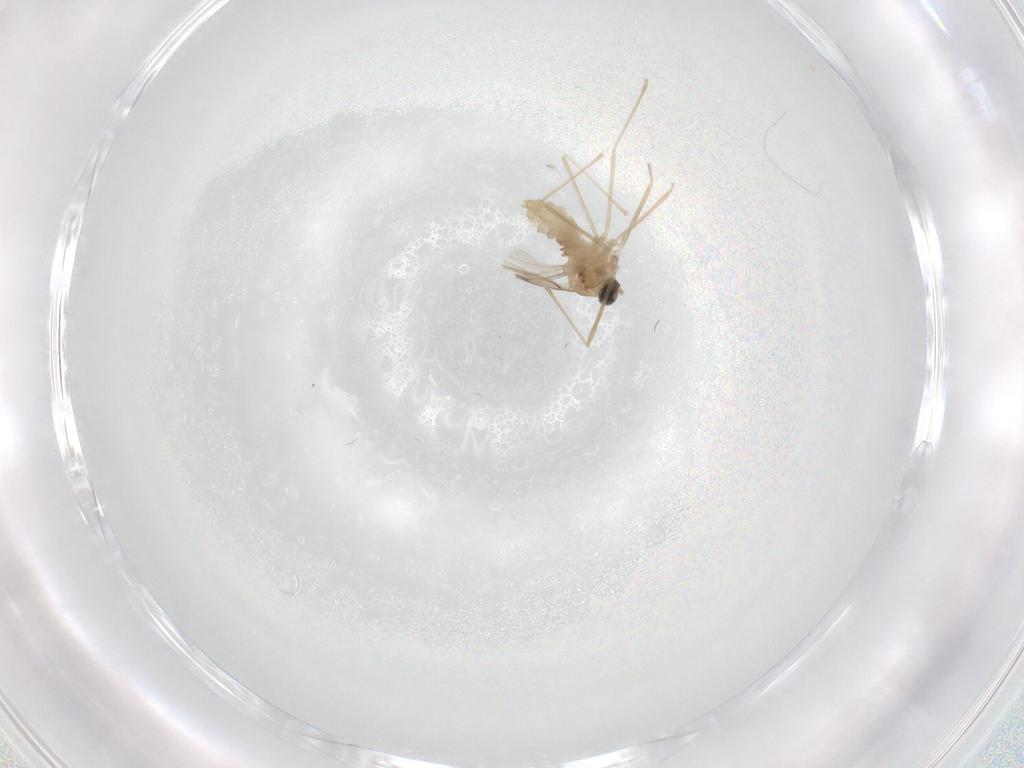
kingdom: Animalia
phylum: Arthropoda
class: Insecta
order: Diptera
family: Cecidomyiidae
